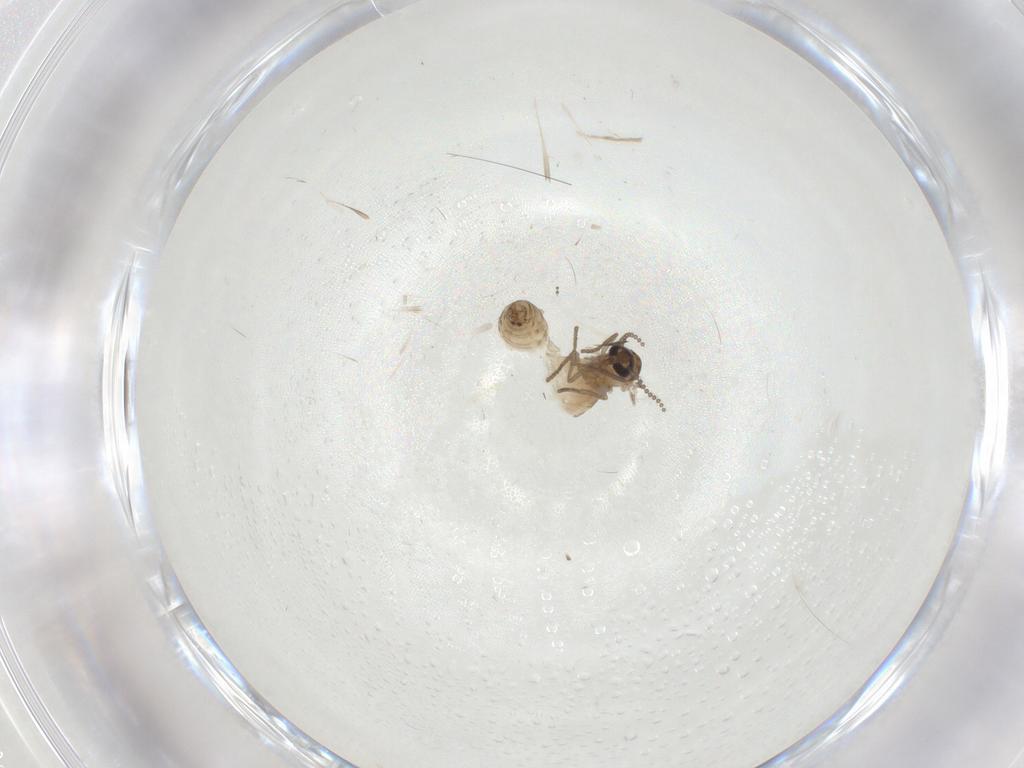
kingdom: Animalia
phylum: Arthropoda
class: Insecta
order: Diptera
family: Psychodidae
